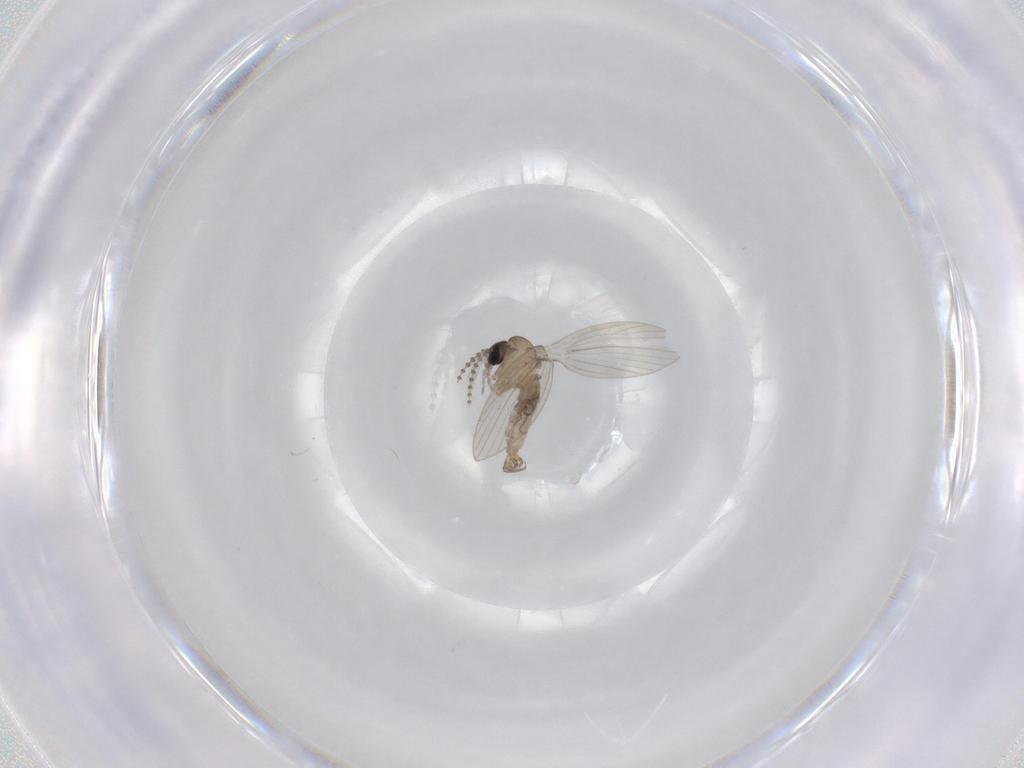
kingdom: Animalia
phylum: Arthropoda
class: Insecta
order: Diptera
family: Psychodidae
